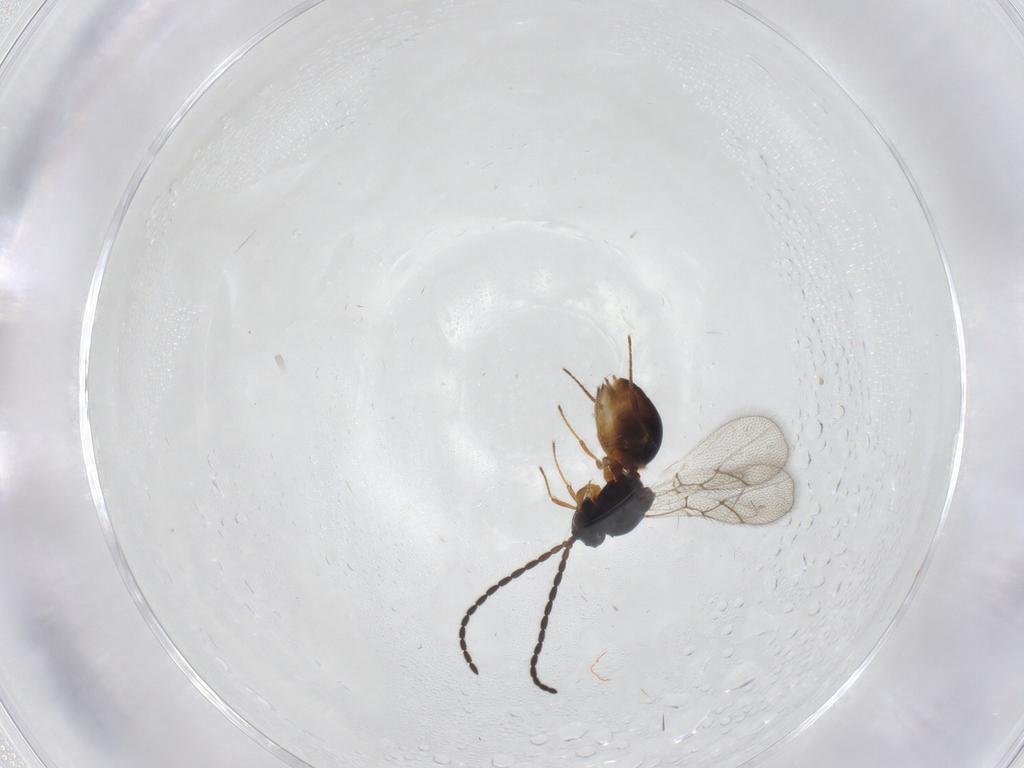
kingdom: Animalia
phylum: Arthropoda
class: Insecta
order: Hymenoptera
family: Figitidae
